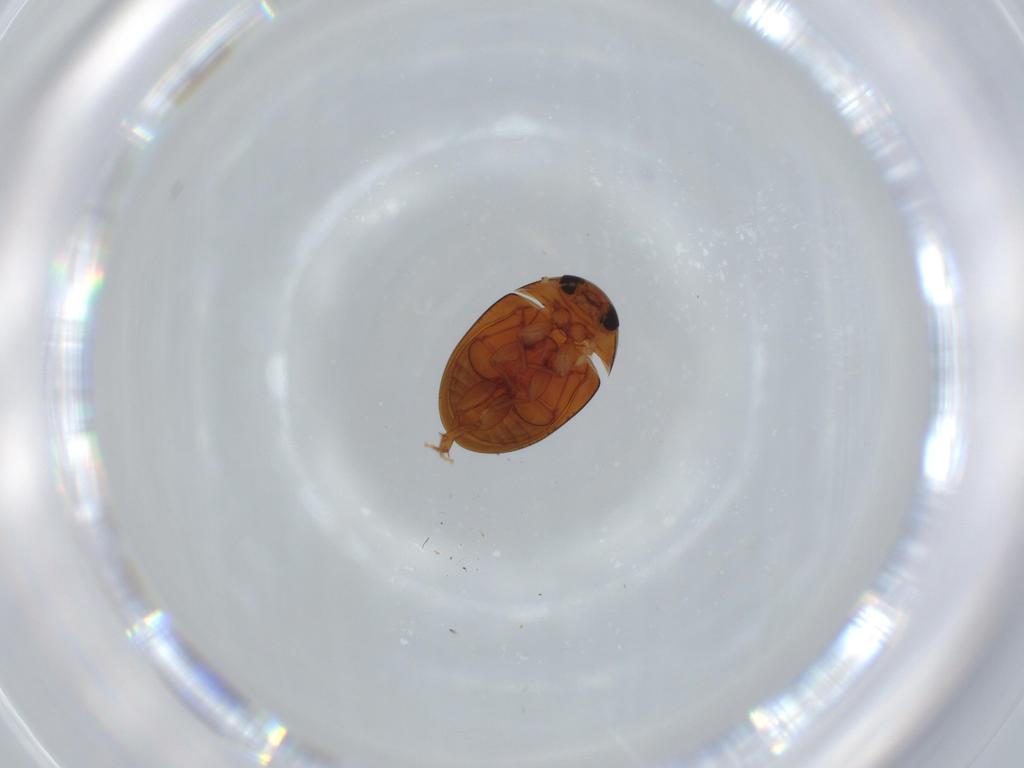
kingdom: Animalia
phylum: Arthropoda
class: Insecta
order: Coleoptera
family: Phalacridae
